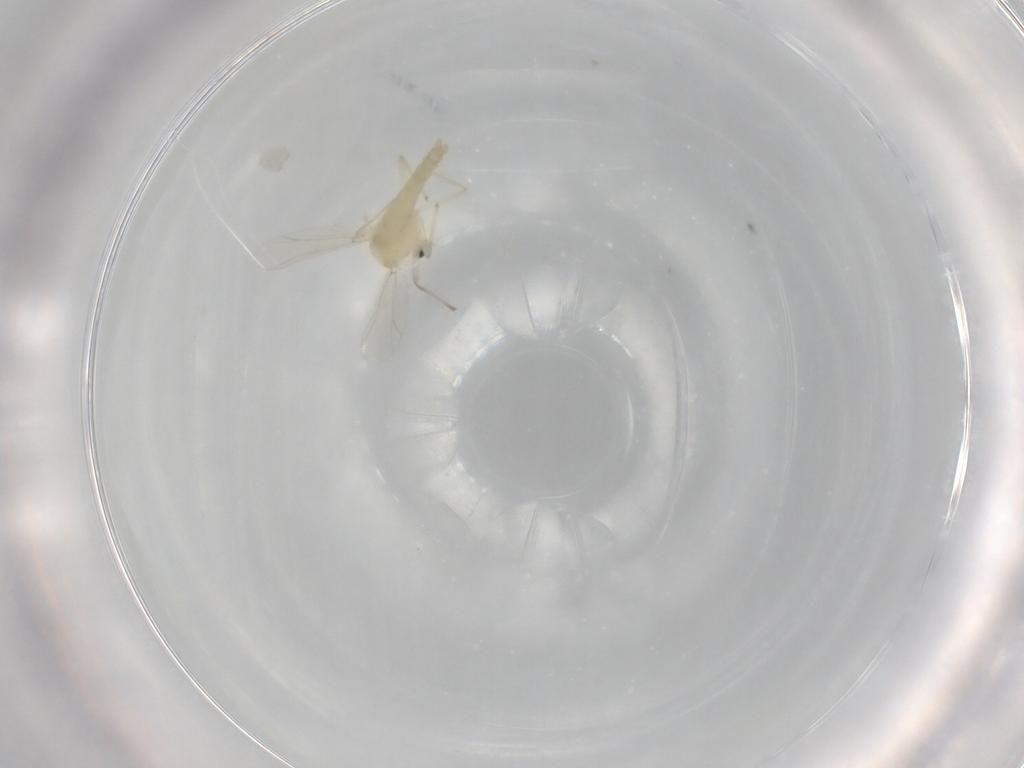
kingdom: Animalia
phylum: Arthropoda
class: Insecta
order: Diptera
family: Chironomidae
